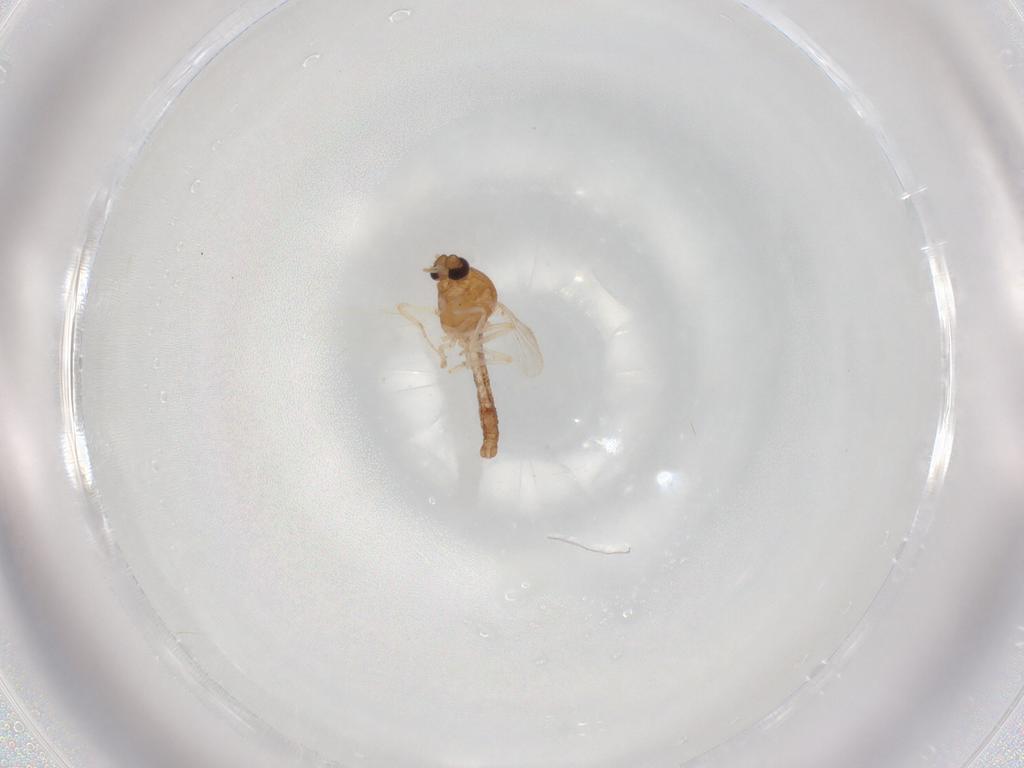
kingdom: Animalia
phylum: Arthropoda
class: Insecta
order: Diptera
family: Ceratopogonidae
